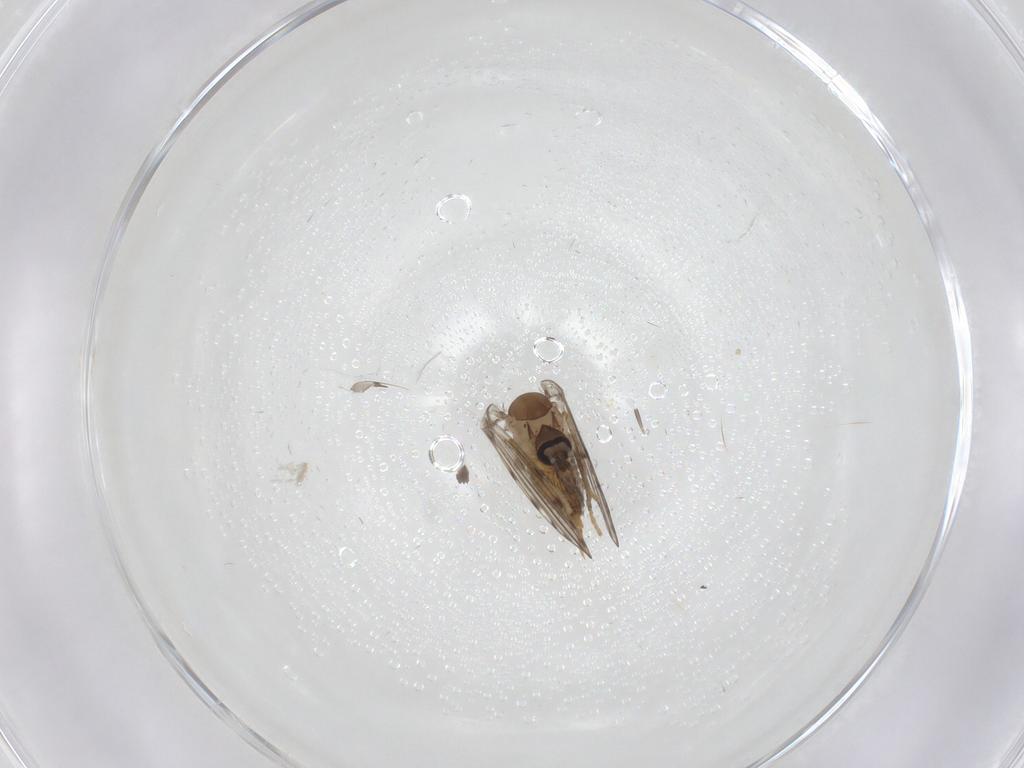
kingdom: Animalia
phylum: Arthropoda
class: Insecta
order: Diptera
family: Psychodidae
